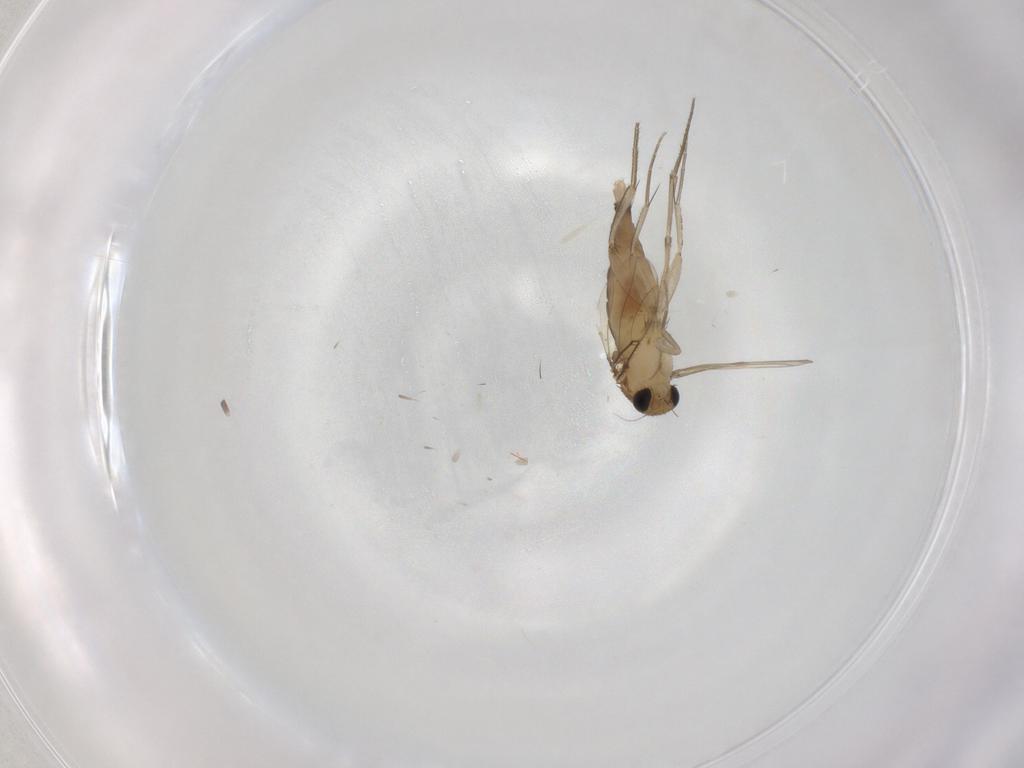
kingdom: Animalia
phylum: Arthropoda
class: Insecta
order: Diptera
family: Phoridae
